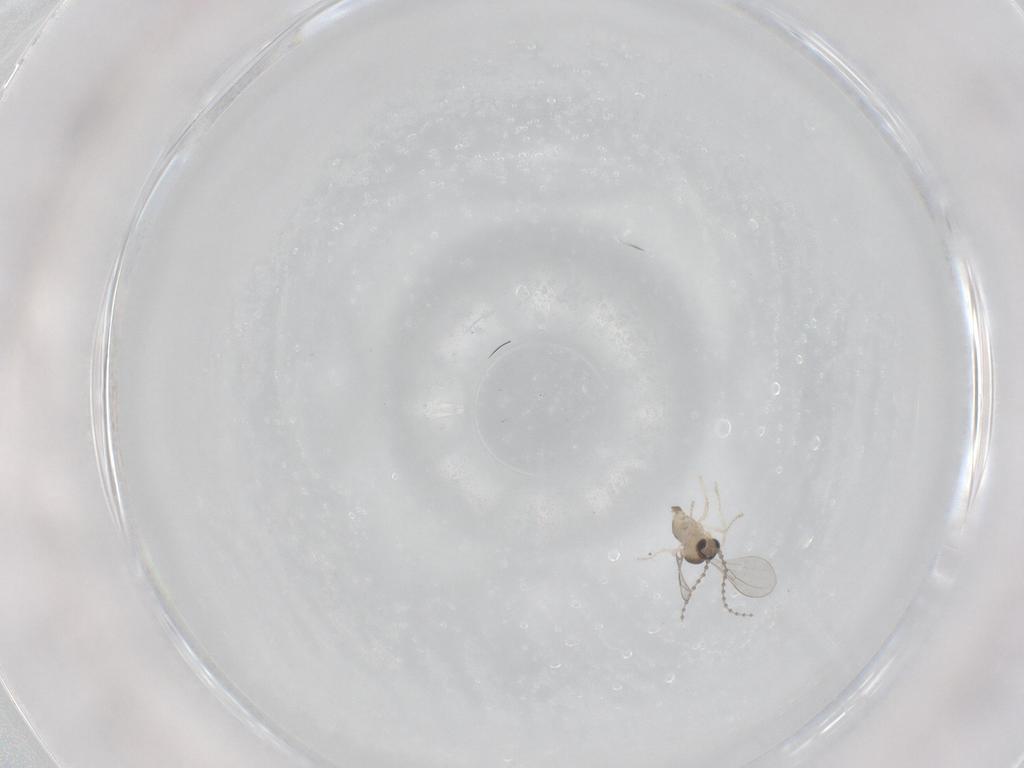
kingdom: Animalia
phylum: Arthropoda
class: Insecta
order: Diptera
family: Cecidomyiidae
